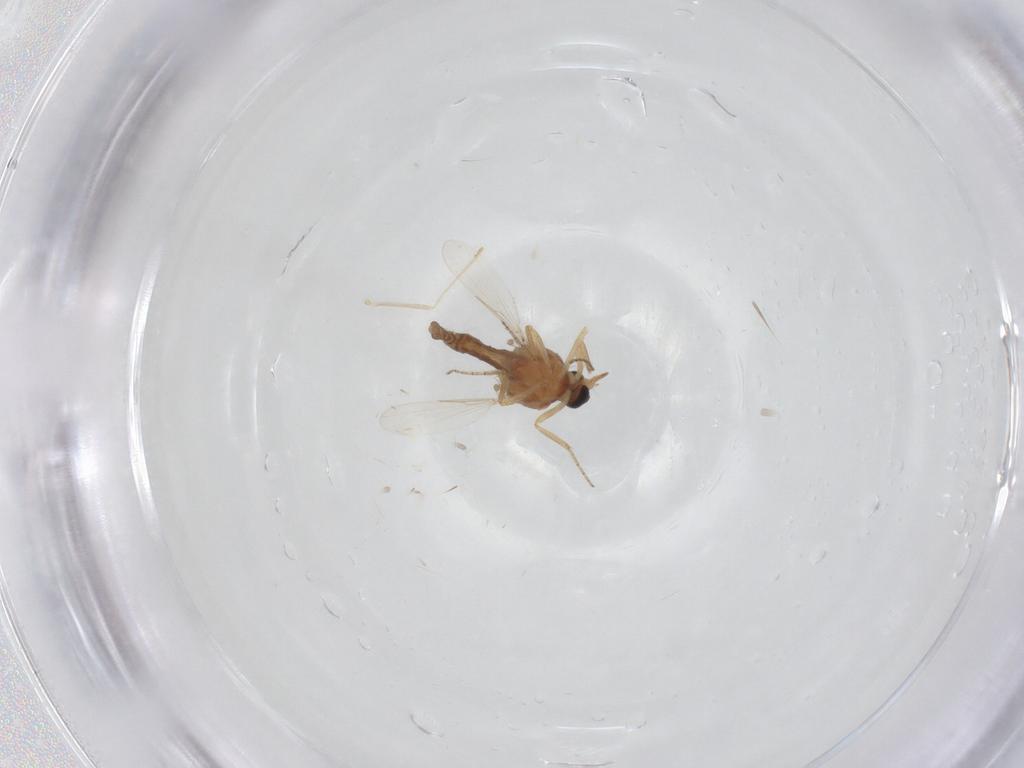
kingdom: Animalia
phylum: Arthropoda
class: Insecta
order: Diptera
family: Ceratopogonidae
